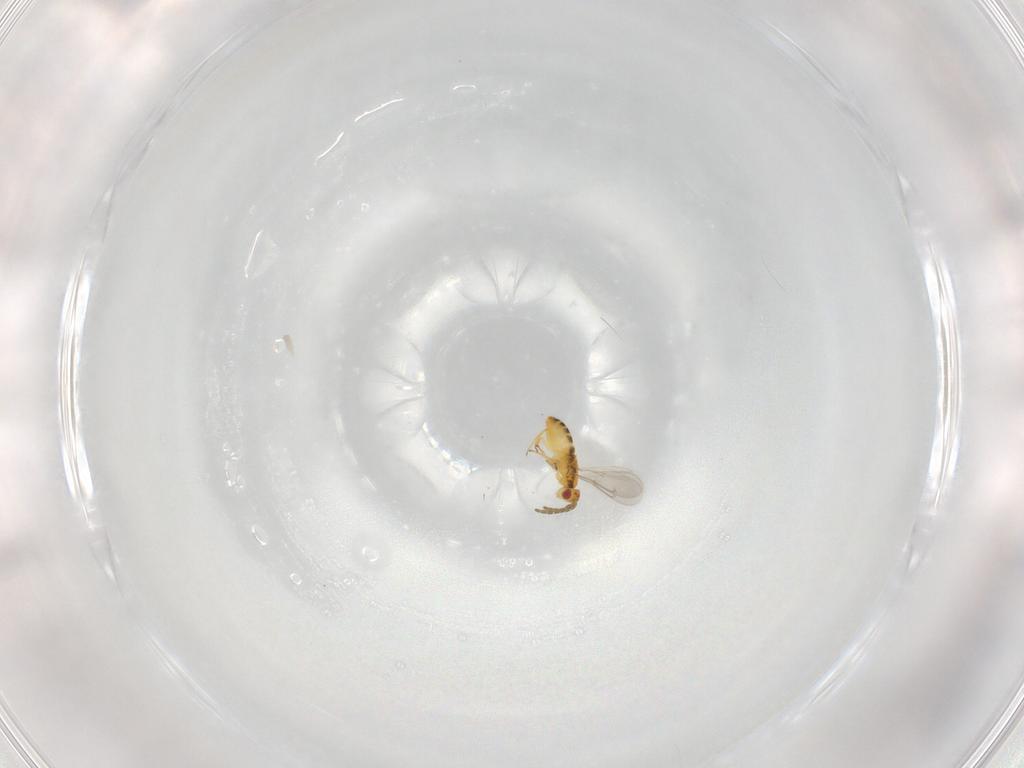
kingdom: Animalia
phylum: Arthropoda
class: Insecta
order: Hymenoptera
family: Aphelinidae
